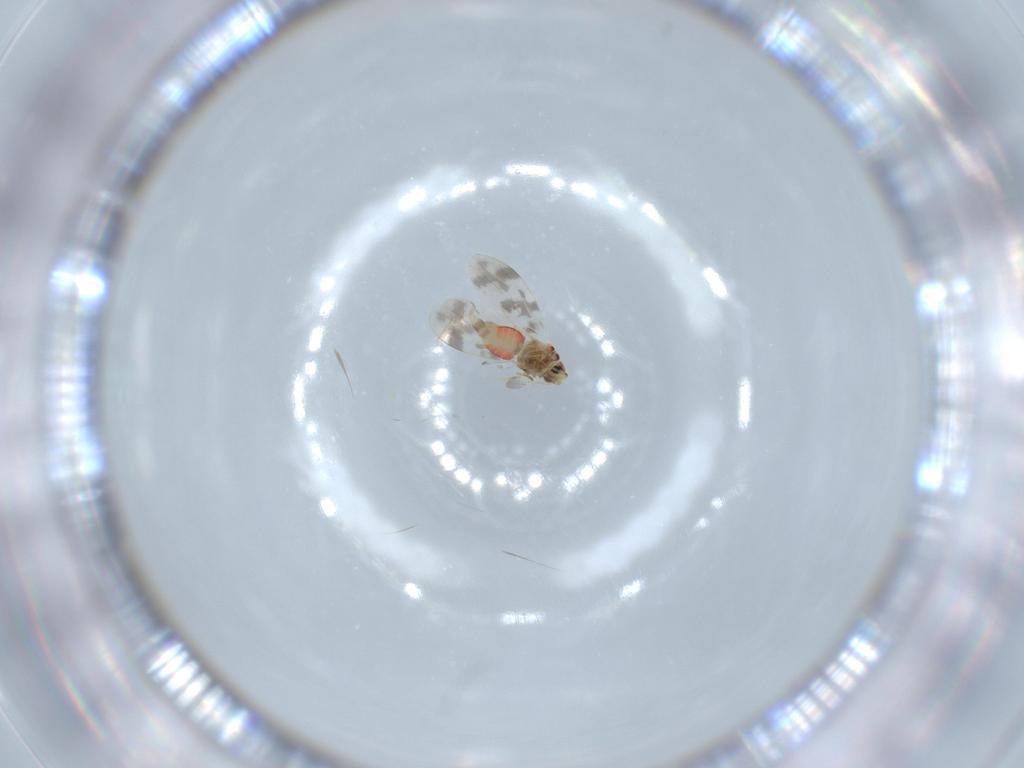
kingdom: Animalia
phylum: Arthropoda
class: Insecta
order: Hemiptera
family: Aleyrodidae
